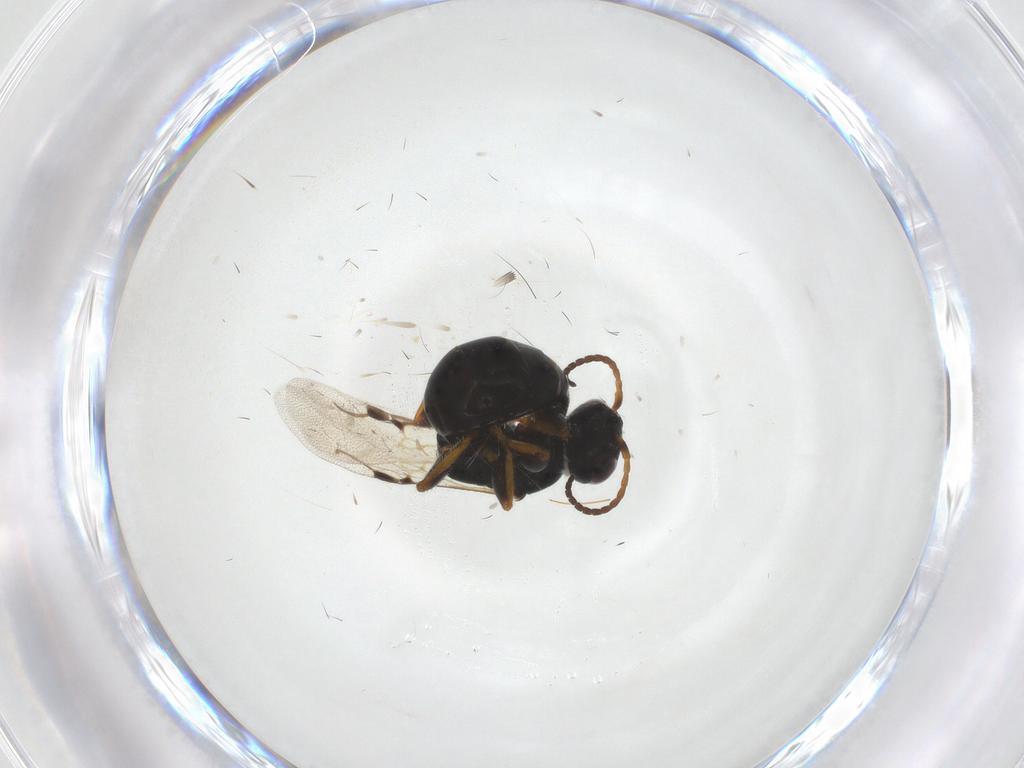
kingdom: Animalia
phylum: Arthropoda
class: Insecta
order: Hymenoptera
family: Bethylidae
